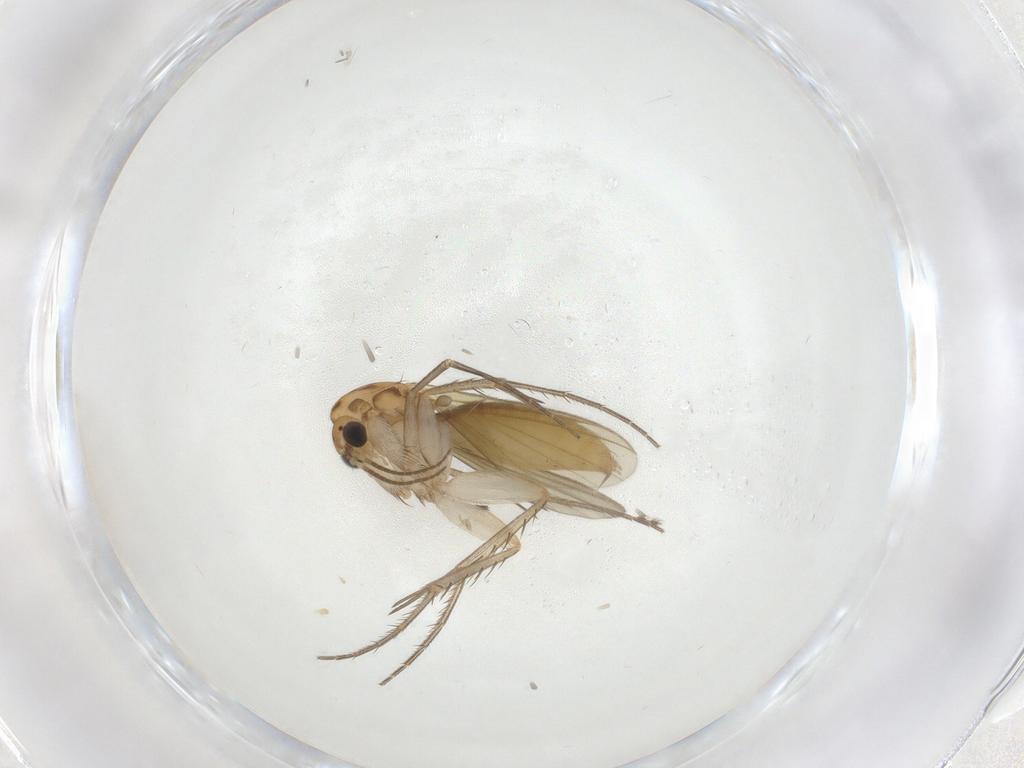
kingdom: Animalia
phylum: Arthropoda
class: Insecta
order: Diptera
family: Mycetophilidae
